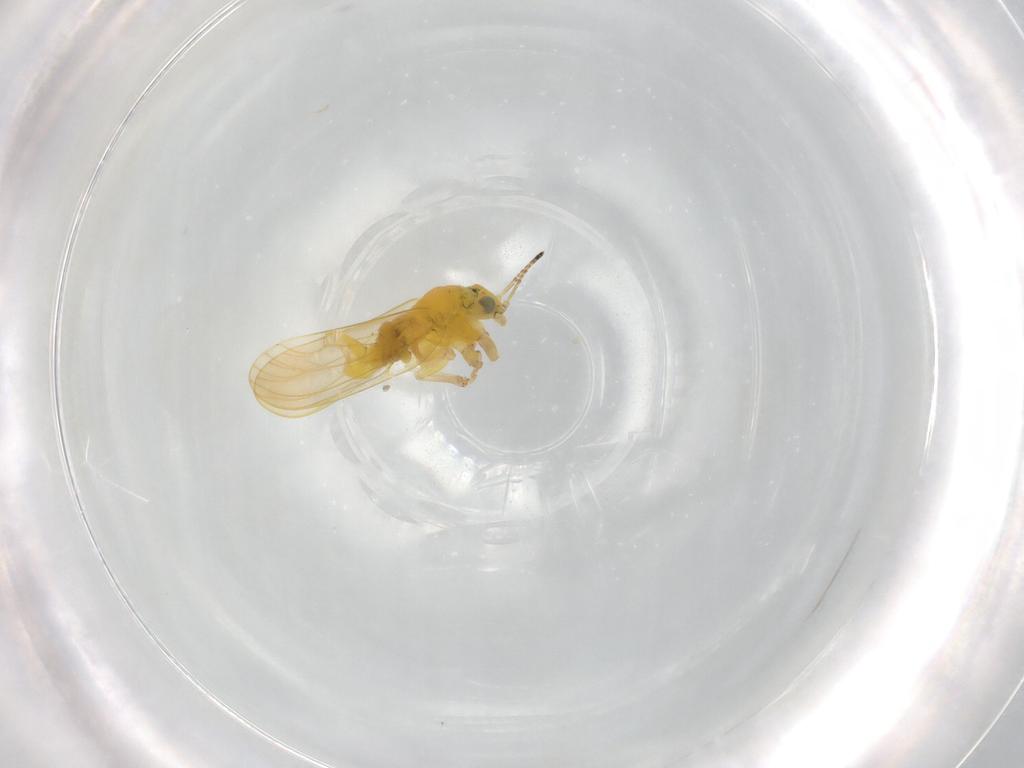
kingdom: Animalia
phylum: Arthropoda
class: Insecta
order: Hemiptera
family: Aphalaridae
